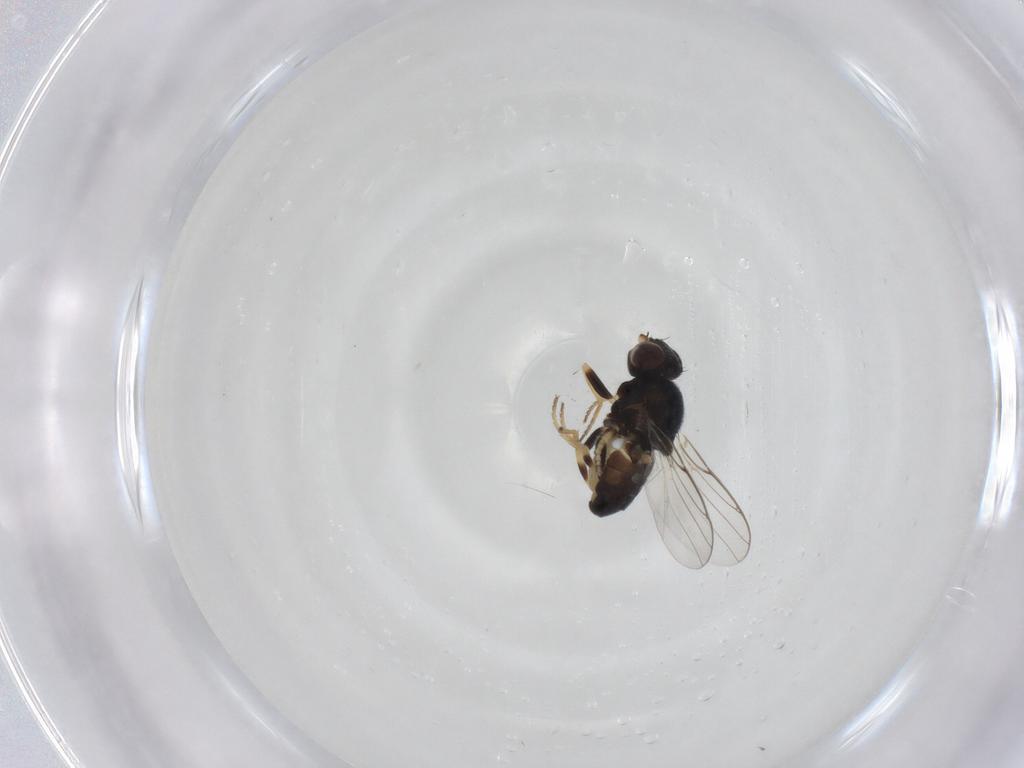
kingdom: Animalia
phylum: Arthropoda
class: Insecta
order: Diptera
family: Chloropidae
